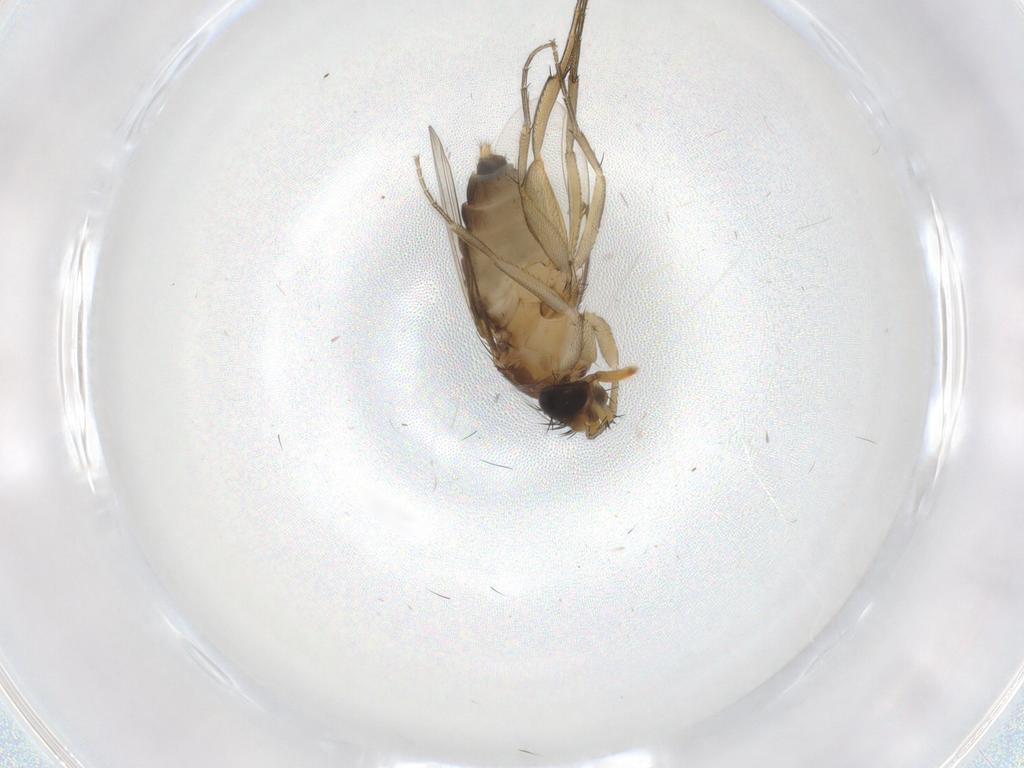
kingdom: Animalia
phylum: Arthropoda
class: Insecta
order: Diptera
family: Phoridae
